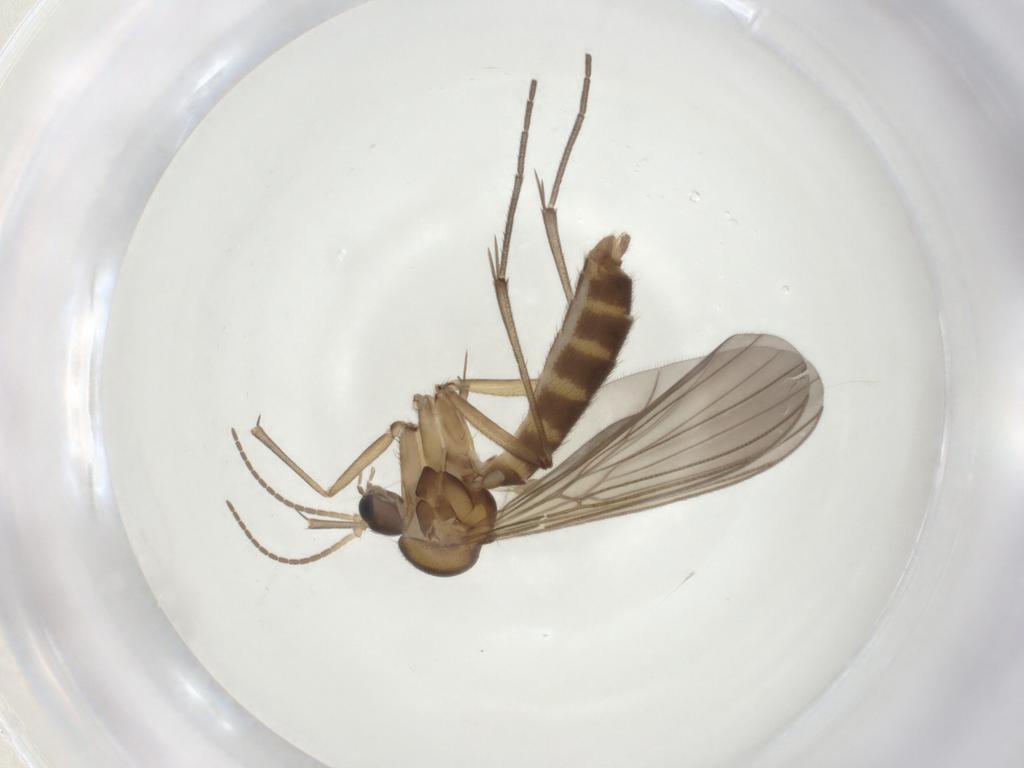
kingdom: Animalia
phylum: Arthropoda
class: Insecta
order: Diptera
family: Mycetophilidae
